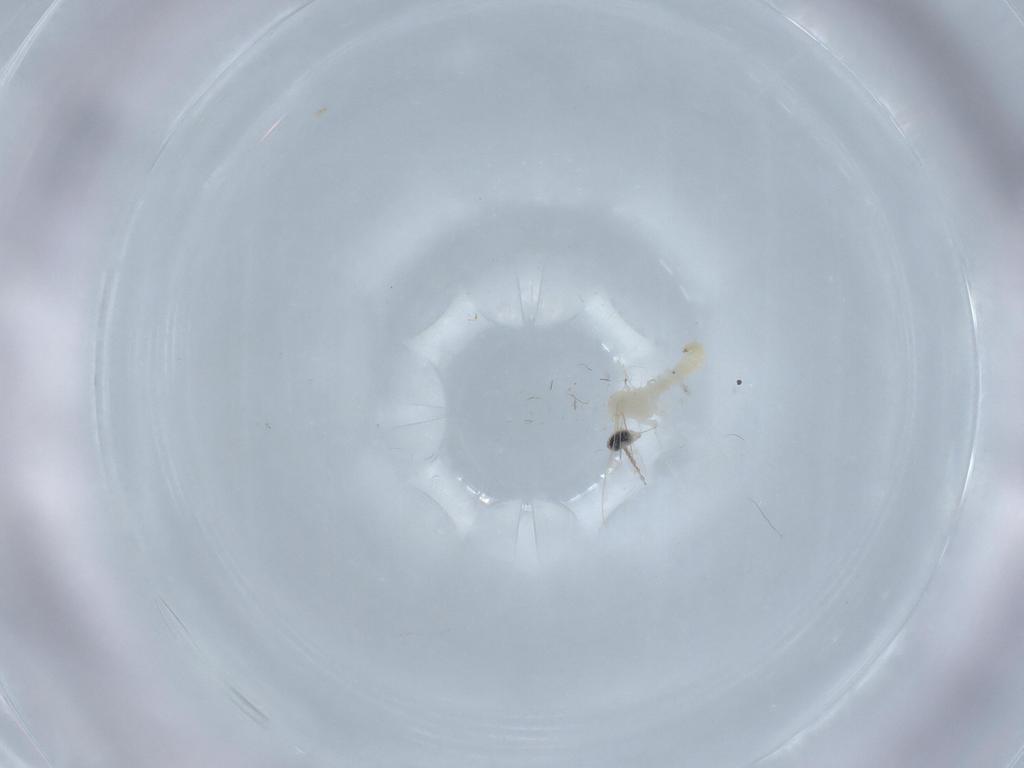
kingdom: Animalia
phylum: Arthropoda
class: Insecta
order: Diptera
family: Cecidomyiidae
